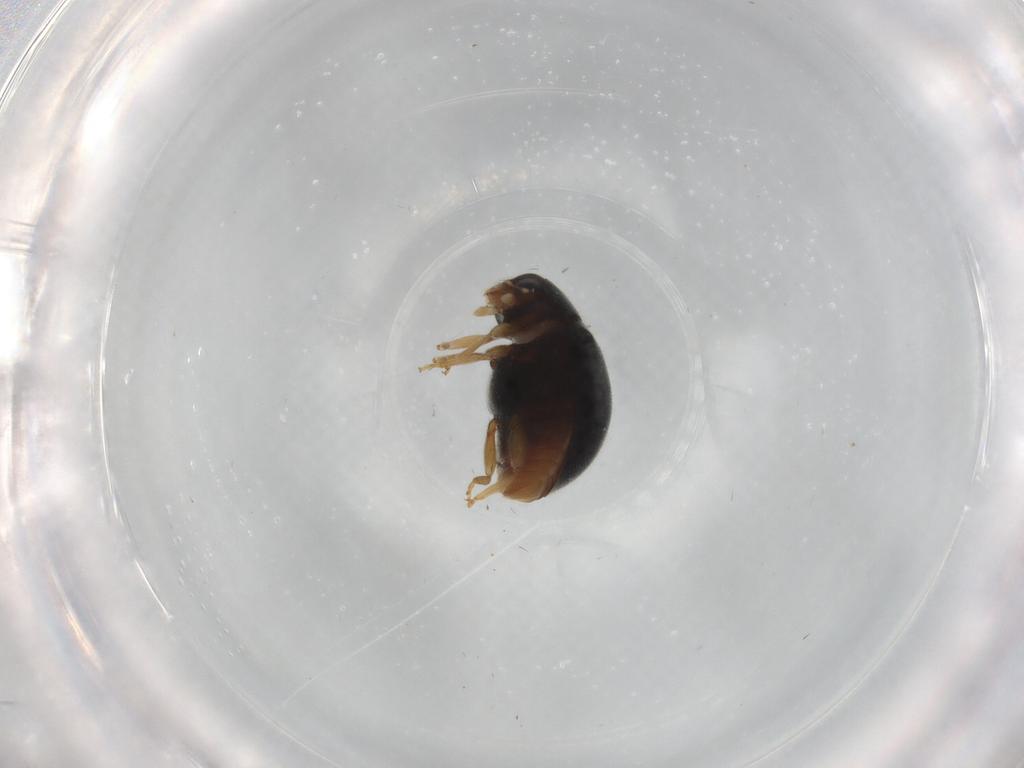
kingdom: Animalia
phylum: Arthropoda
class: Insecta
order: Coleoptera
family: Coccinellidae
